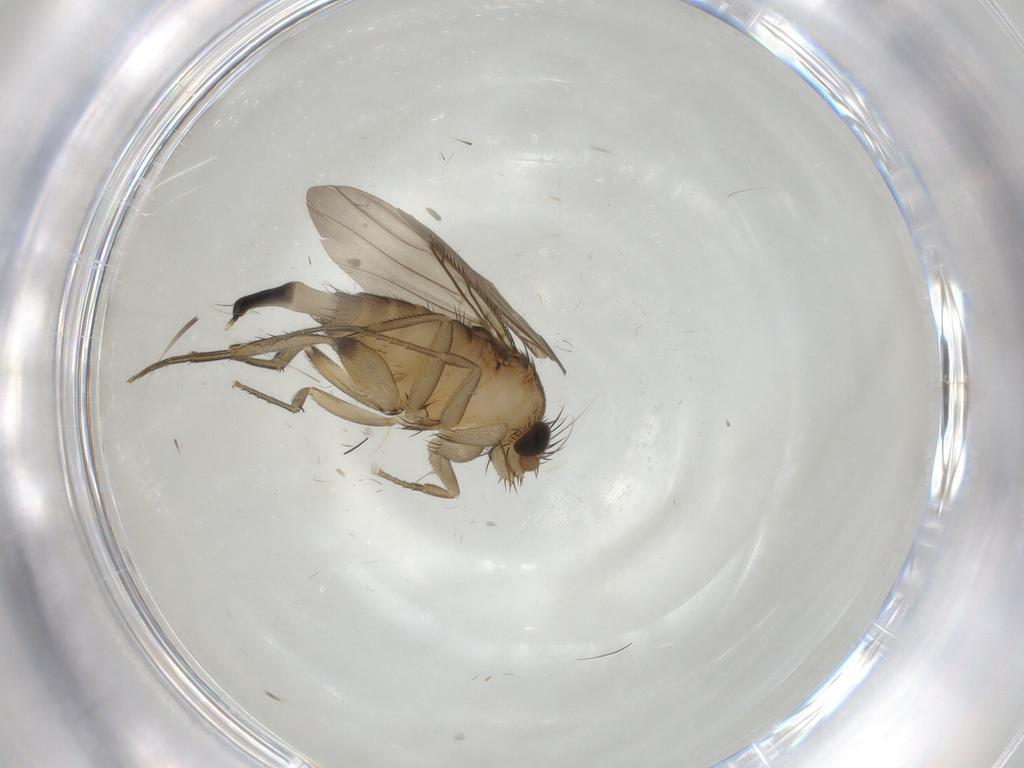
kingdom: Animalia
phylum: Arthropoda
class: Insecta
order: Diptera
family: Phoridae
